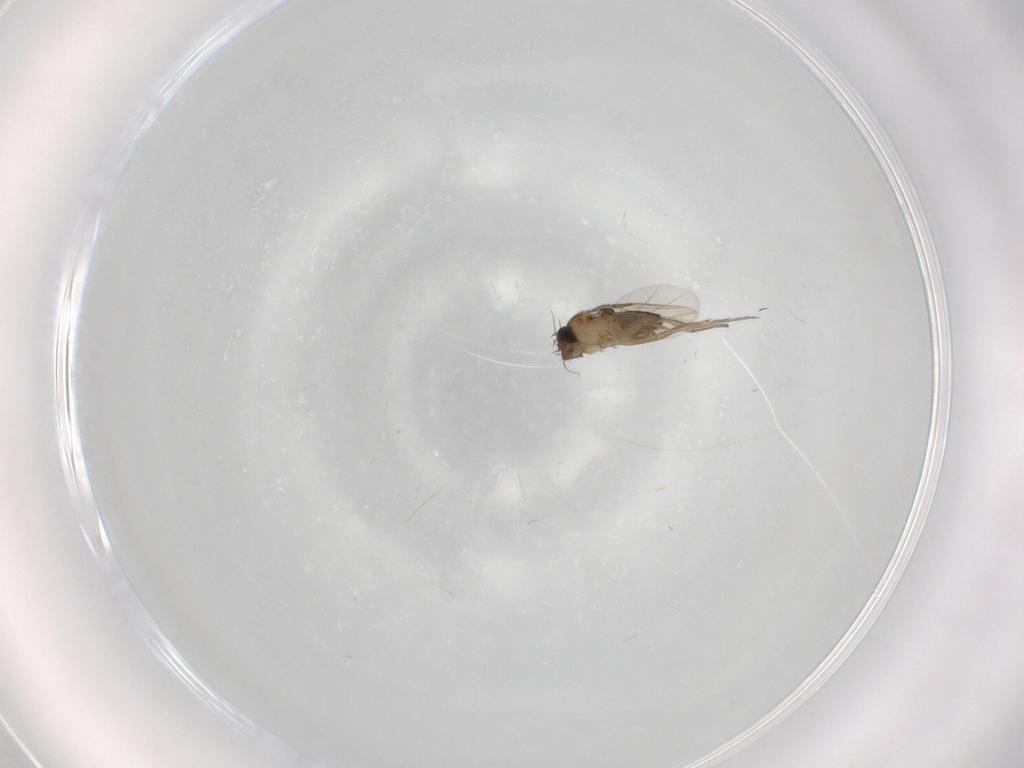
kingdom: Animalia
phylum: Arthropoda
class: Insecta
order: Diptera
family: Phoridae
